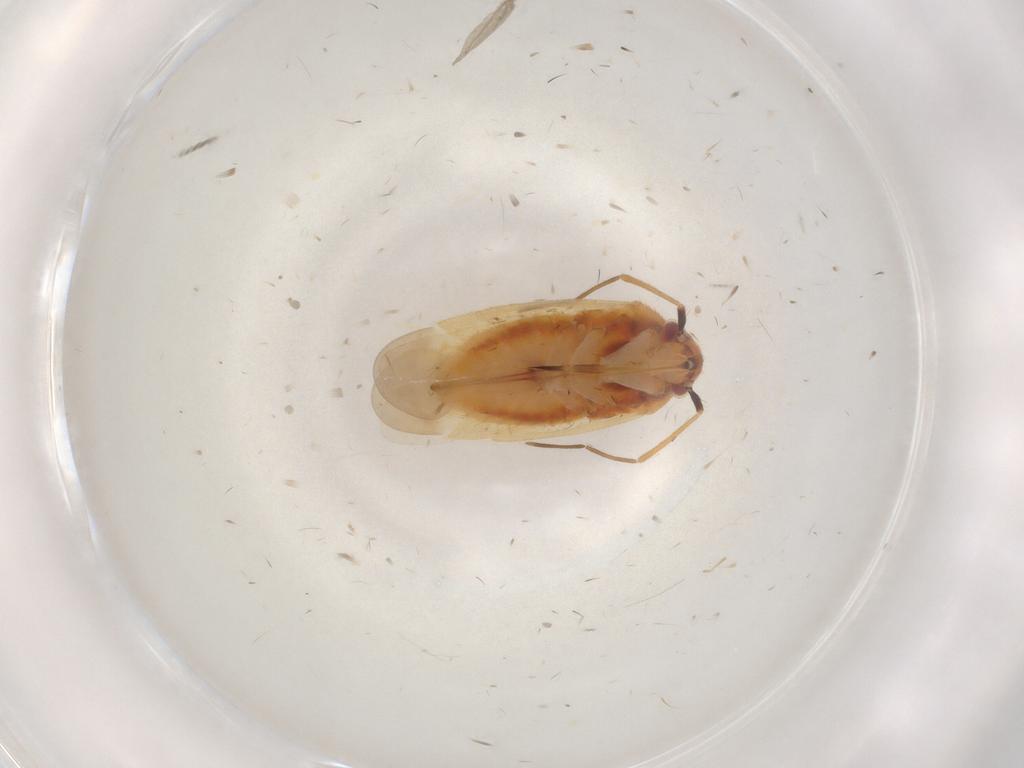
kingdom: Animalia
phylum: Arthropoda
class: Insecta
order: Hemiptera
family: Miridae
